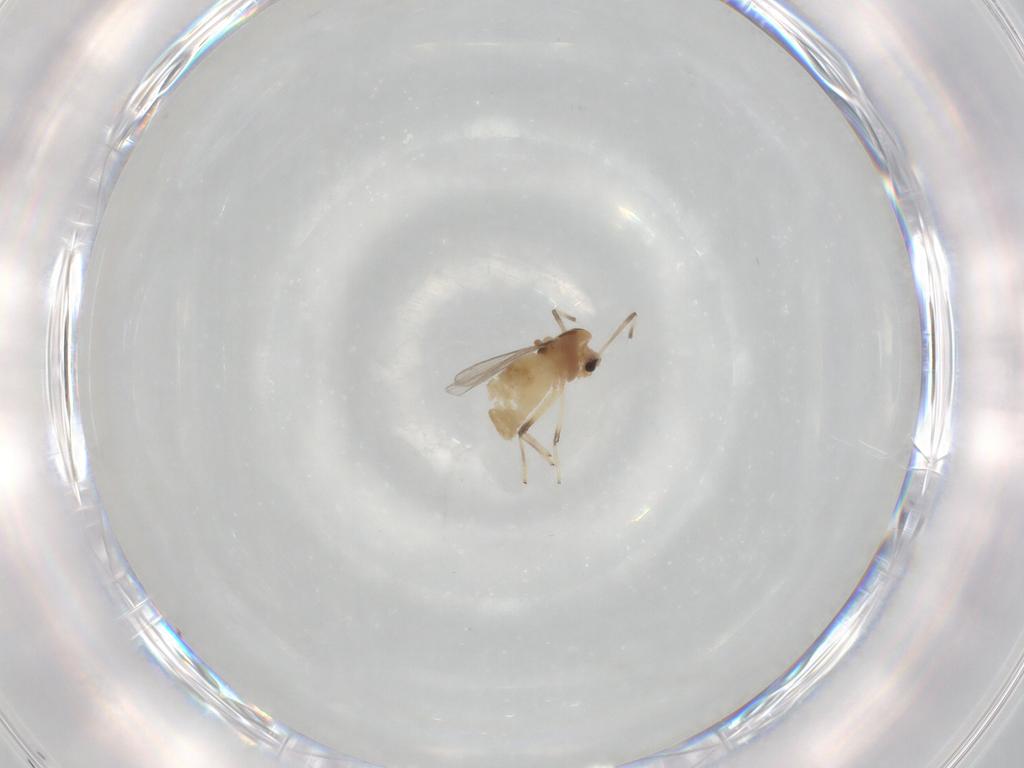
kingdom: Animalia
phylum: Arthropoda
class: Insecta
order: Diptera
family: Chironomidae
